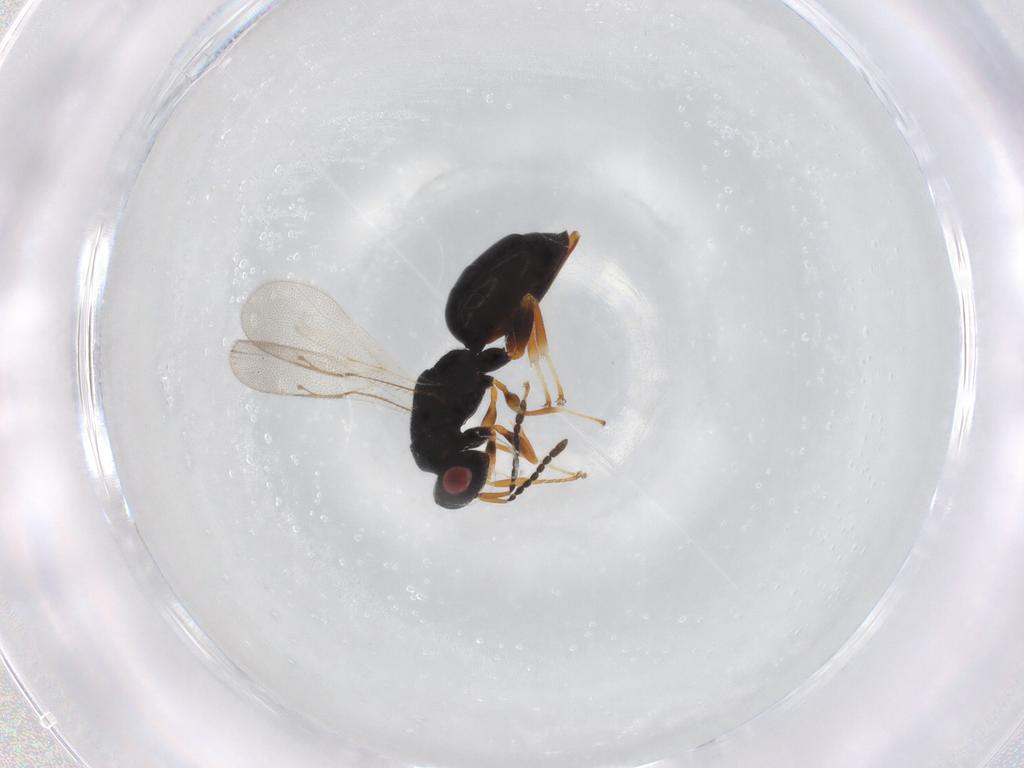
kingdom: Animalia
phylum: Arthropoda
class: Insecta
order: Hymenoptera
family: Eurytomidae
